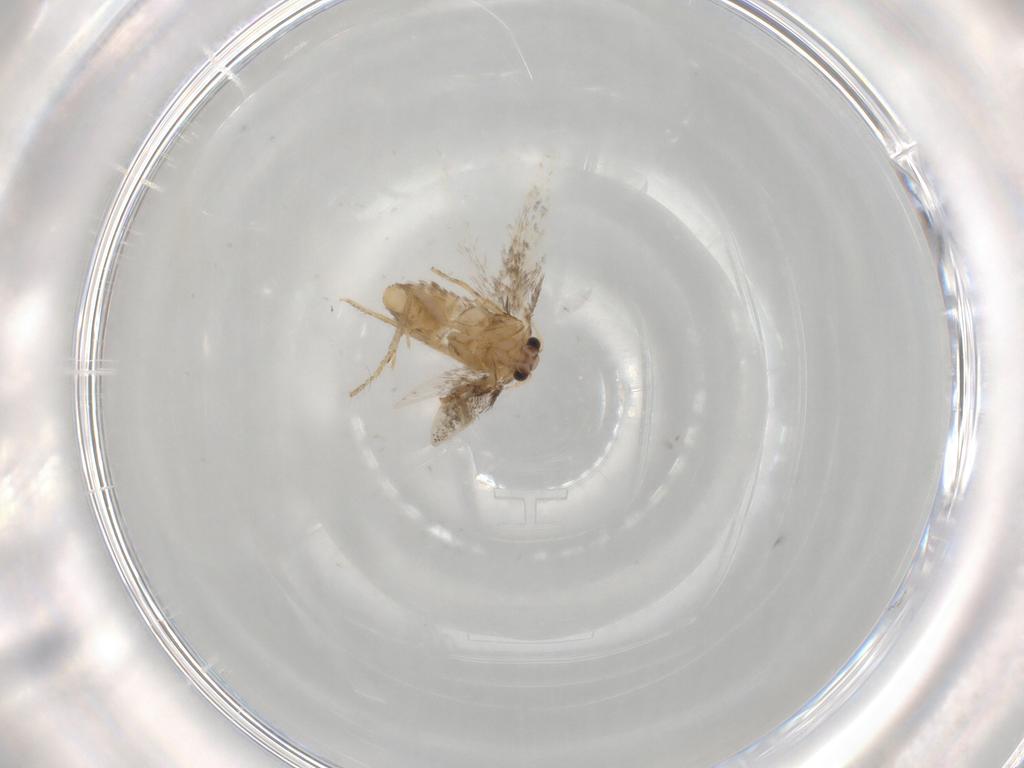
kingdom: Animalia
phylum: Arthropoda
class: Insecta
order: Lepidoptera
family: Nepticulidae
